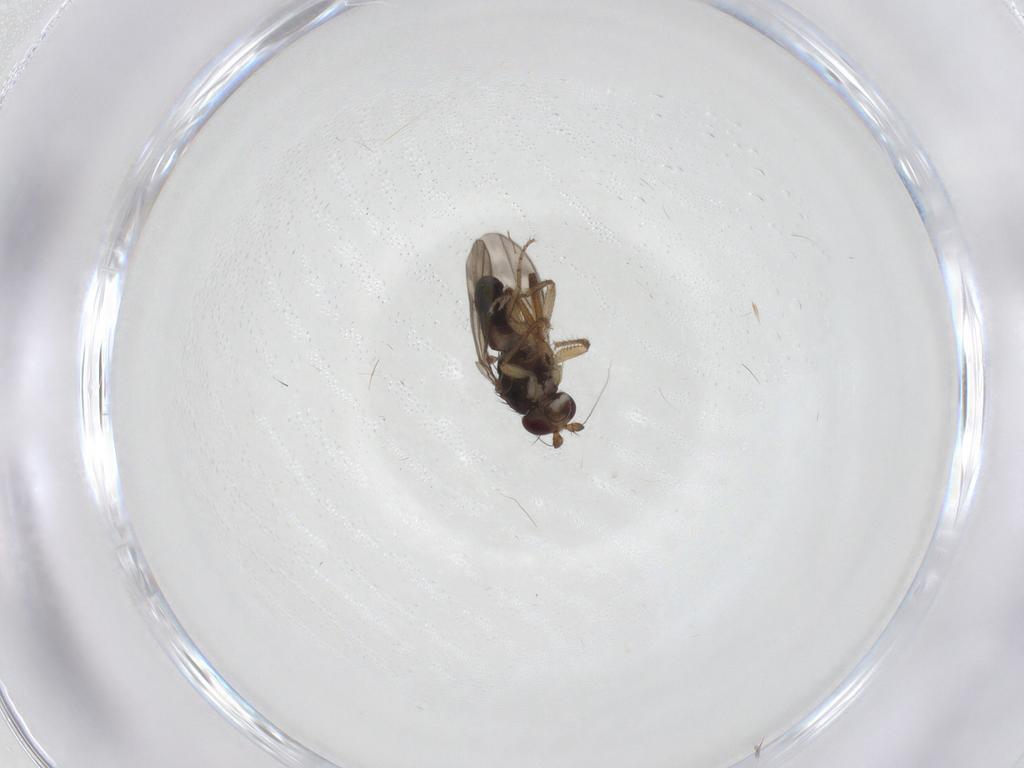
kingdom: Animalia
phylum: Arthropoda
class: Insecta
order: Diptera
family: Sphaeroceridae
